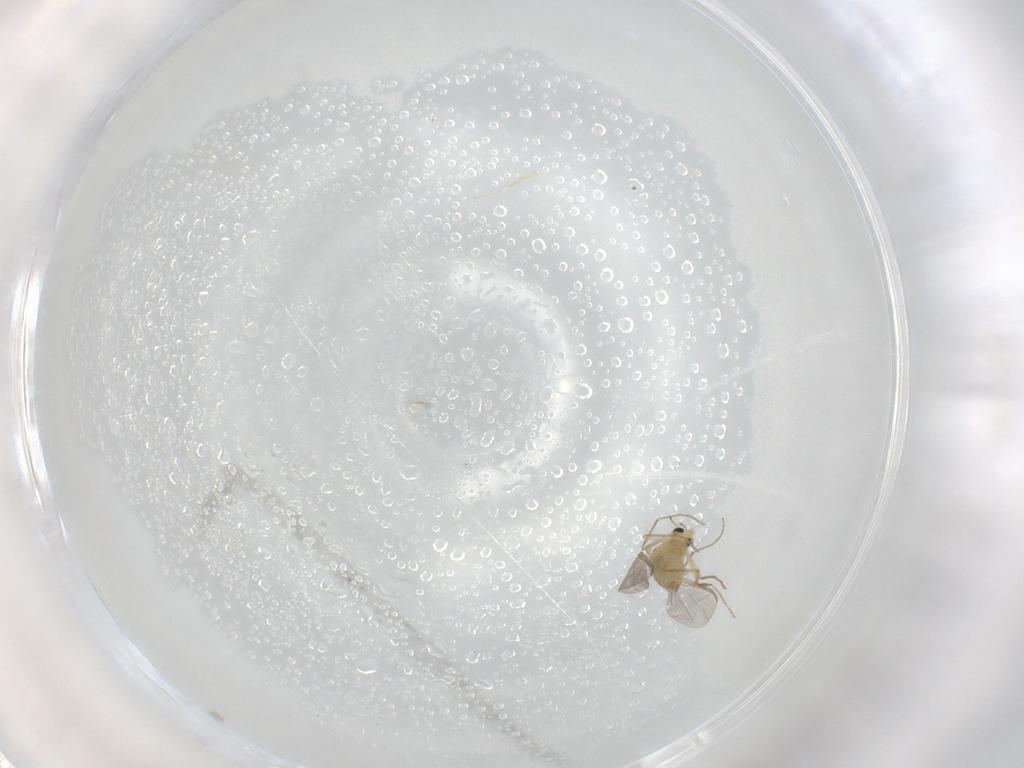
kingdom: Animalia
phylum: Arthropoda
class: Insecta
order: Diptera
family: Chironomidae
